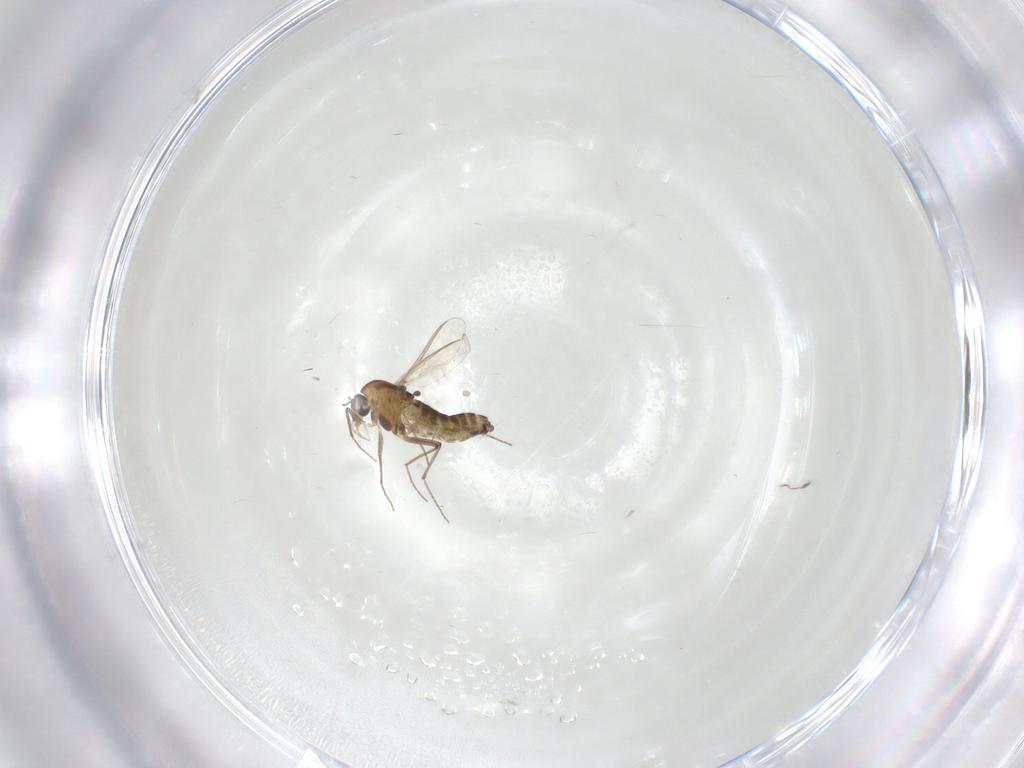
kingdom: Animalia
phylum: Arthropoda
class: Insecta
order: Diptera
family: Chironomidae
